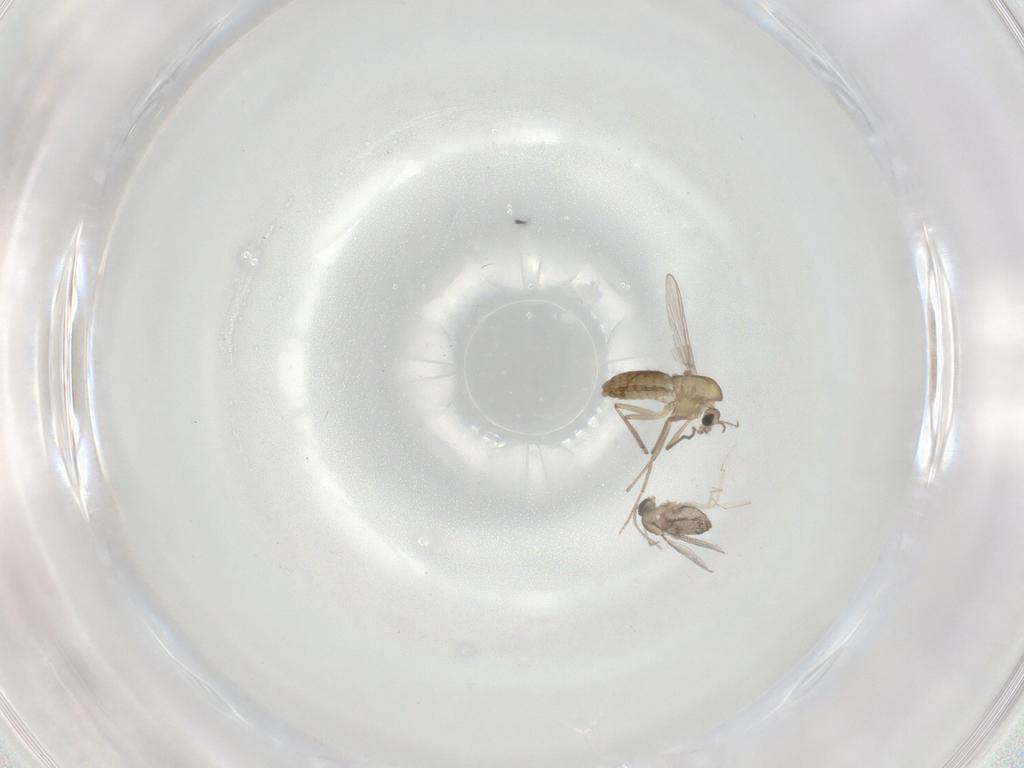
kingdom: Animalia
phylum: Arthropoda
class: Insecta
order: Diptera
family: Chironomidae
